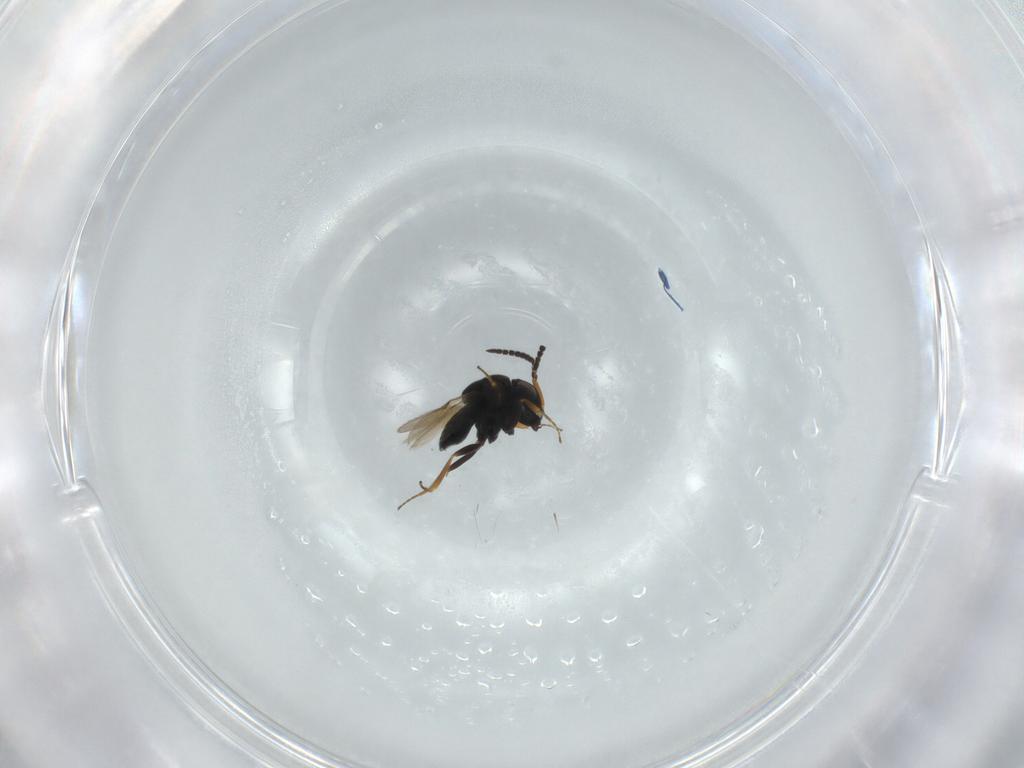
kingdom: Animalia
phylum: Arthropoda
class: Insecta
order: Hymenoptera
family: Scelionidae
